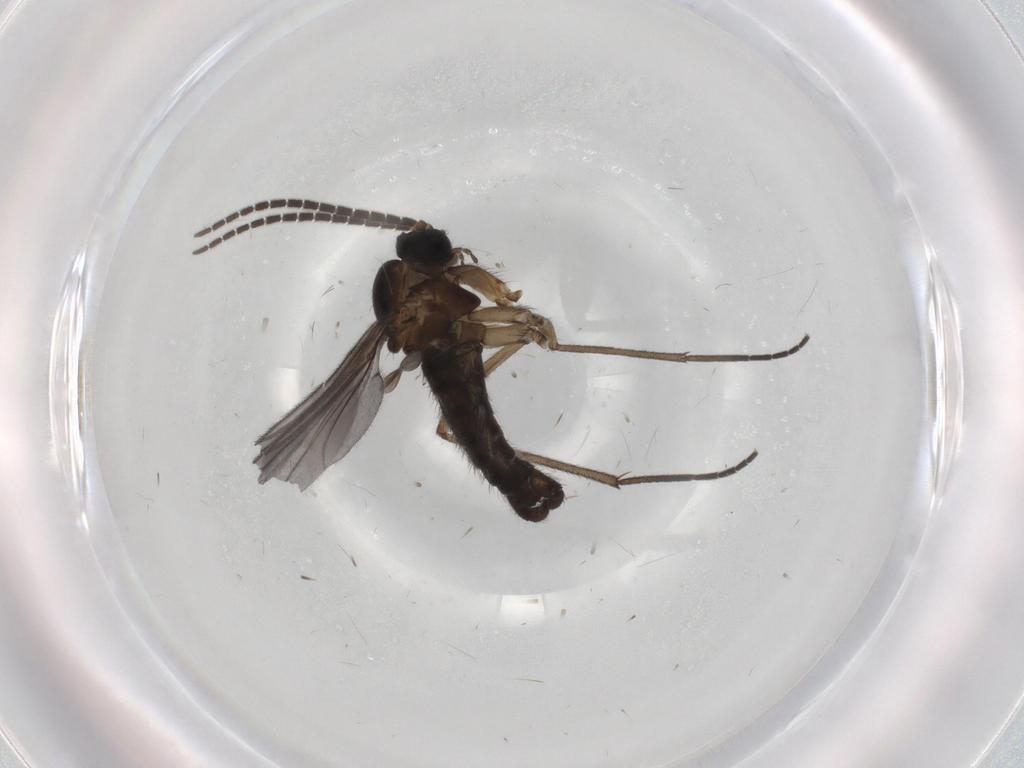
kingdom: Animalia
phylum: Arthropoda
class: Insecta
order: Diptera
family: Sciaridae
